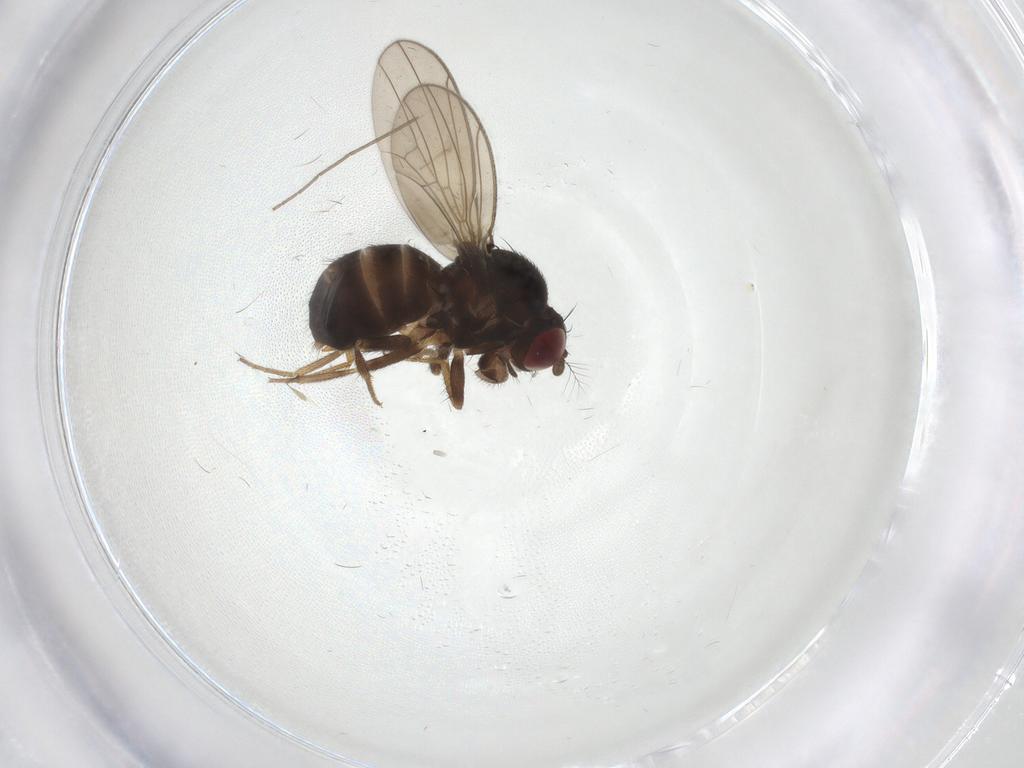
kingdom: Animalia
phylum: Arthropoda
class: Insecta
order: Diptera
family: Drosophilidae
